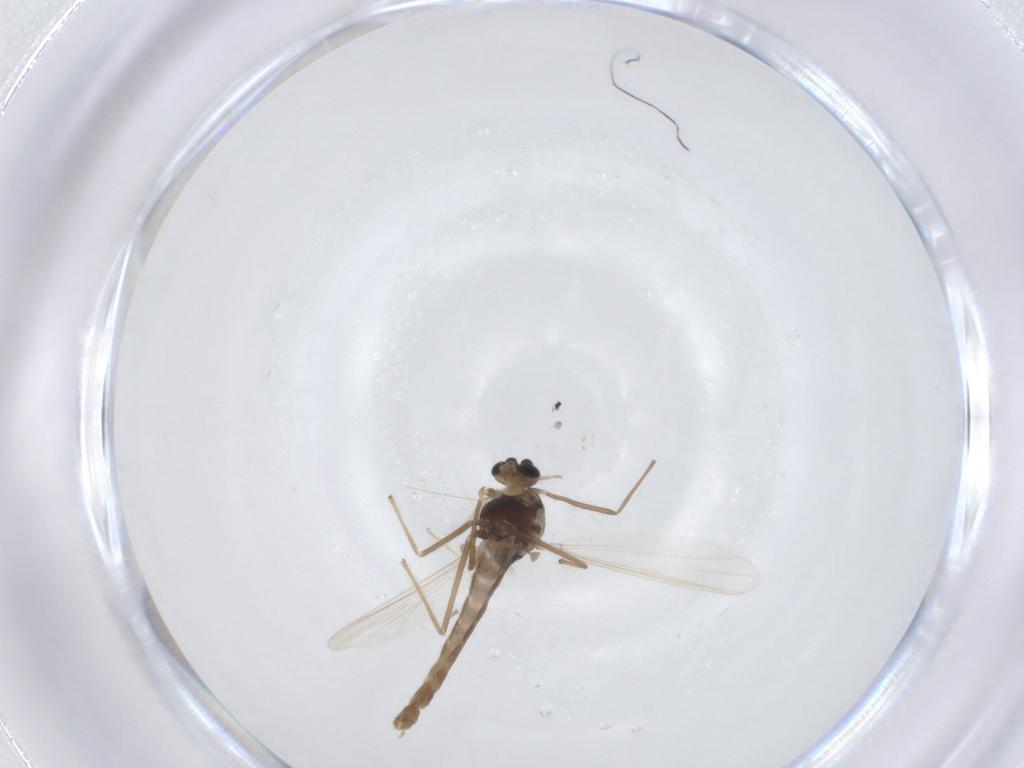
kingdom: Animalia
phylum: Arthropoda
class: Insecta
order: Diptera
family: Chironomidae
